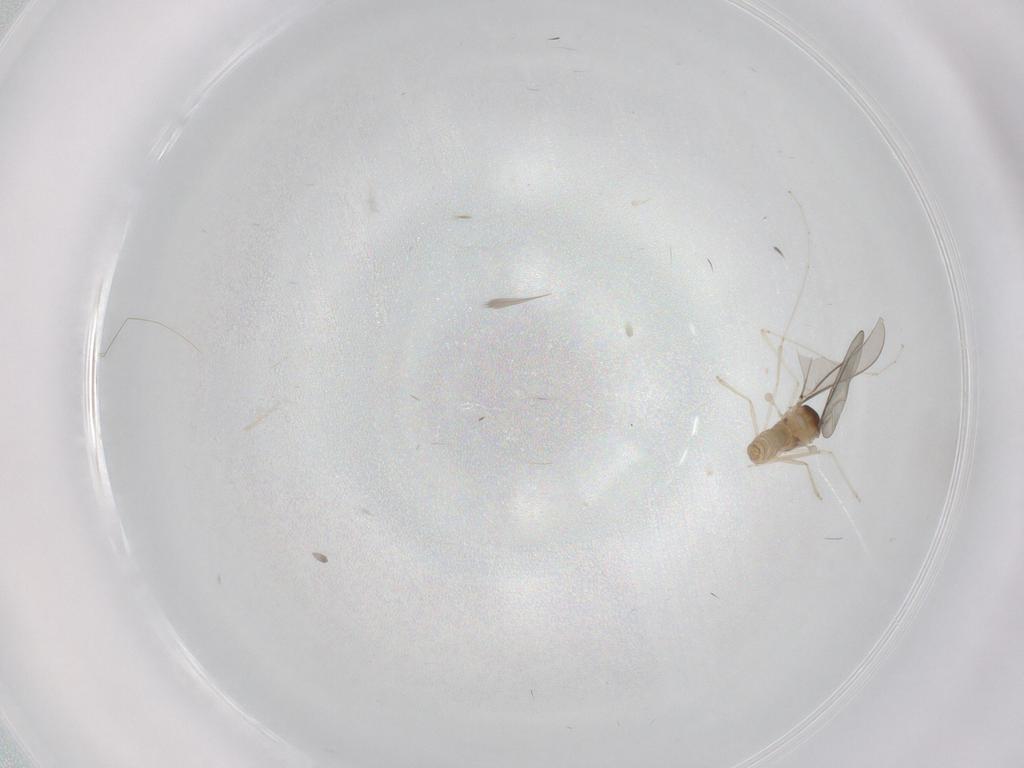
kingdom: Animalia
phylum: Arthropoda
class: Insecta
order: Diptera
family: Cecidomyiidae
